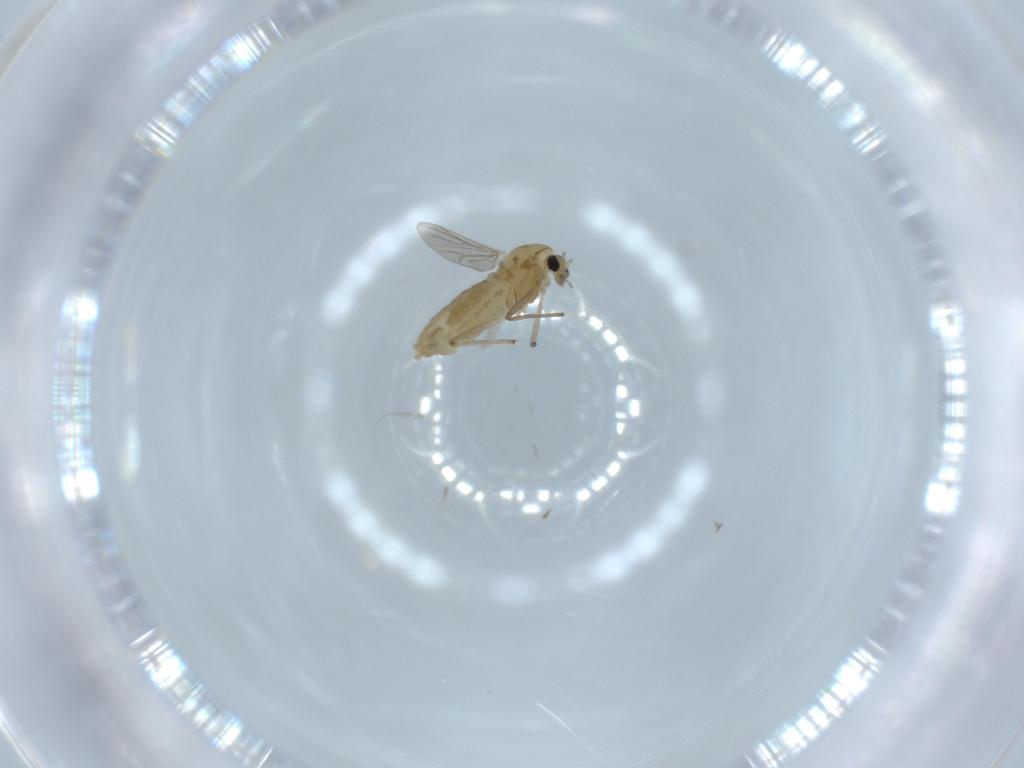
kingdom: Animalia
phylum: Arthropoda
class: Insecta
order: Diptera
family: Chironomidae
